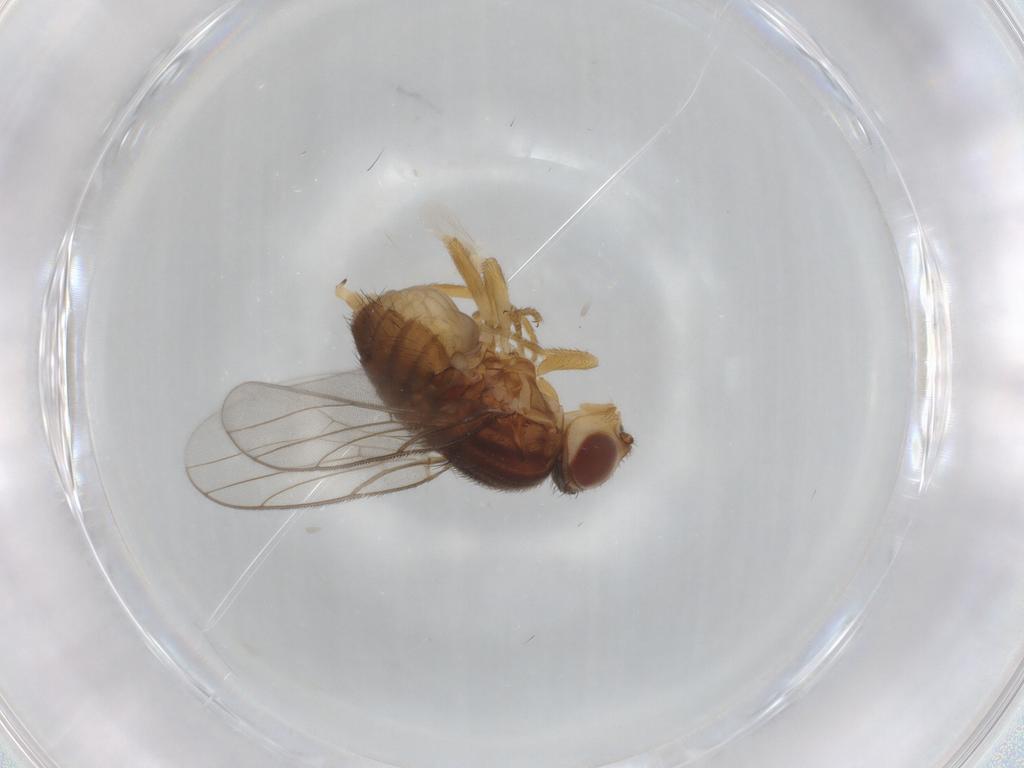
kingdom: Animalia
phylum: Arthropoda
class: Insecta
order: Diptera
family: Chloropidae
